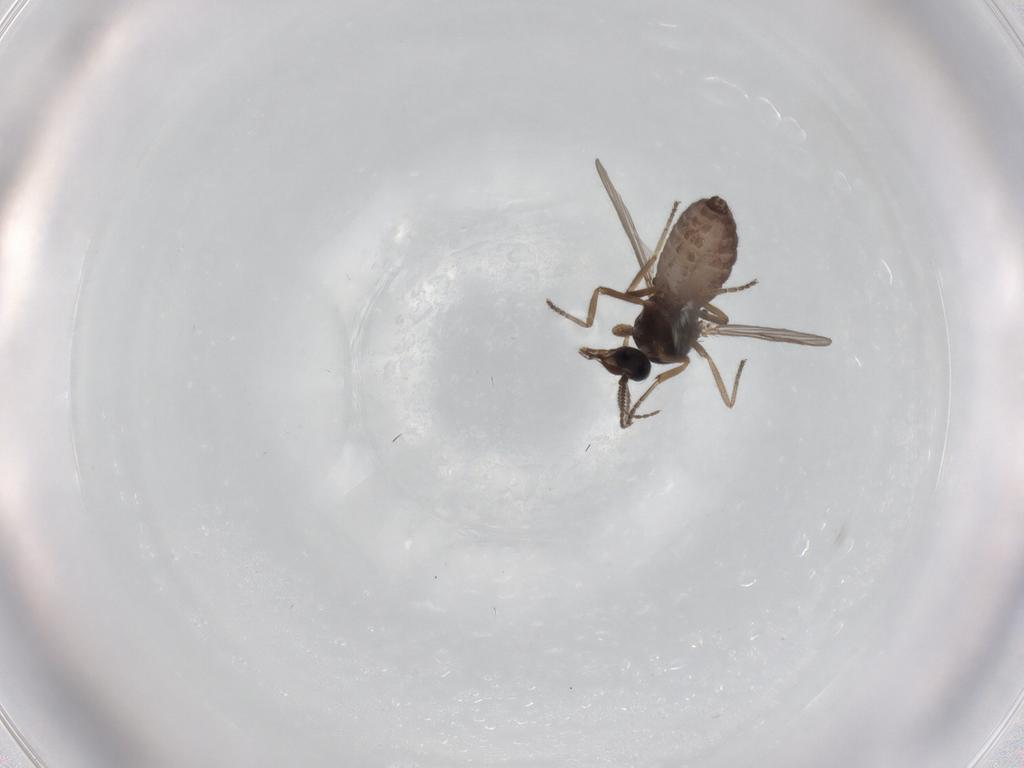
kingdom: Animalia
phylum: Arthropoda
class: Insecta
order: Diptera
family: Ceratopogonidae
